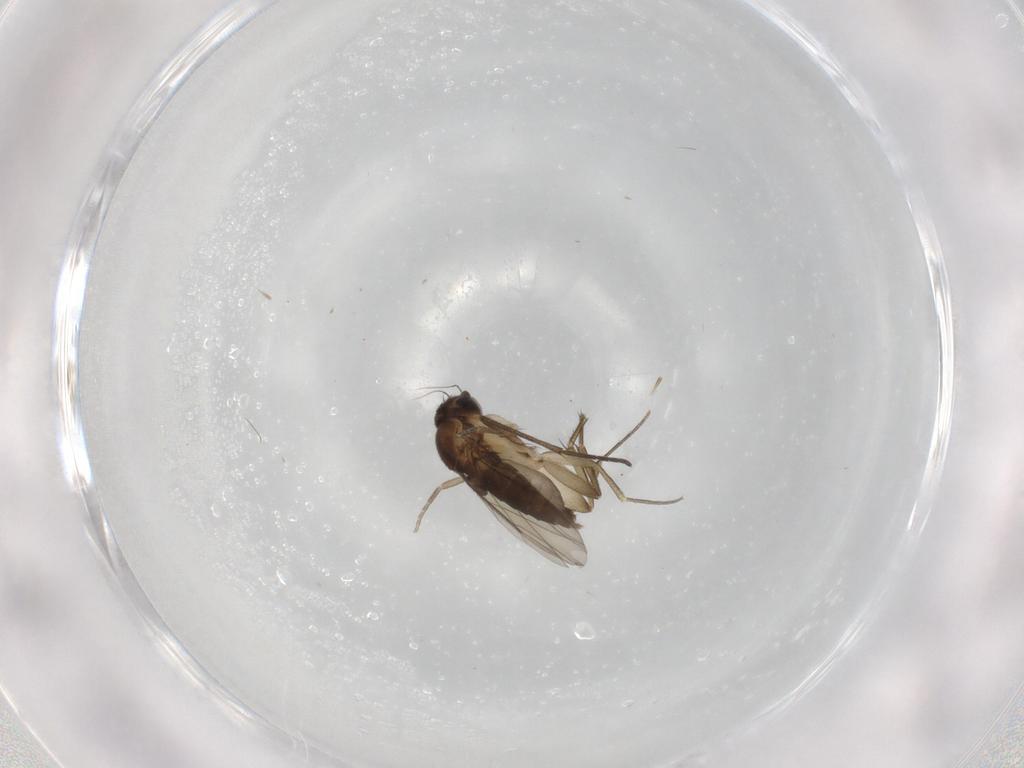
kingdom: Animalia
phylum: Arthropoda
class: Insecta
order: Diptera
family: Phoridae
